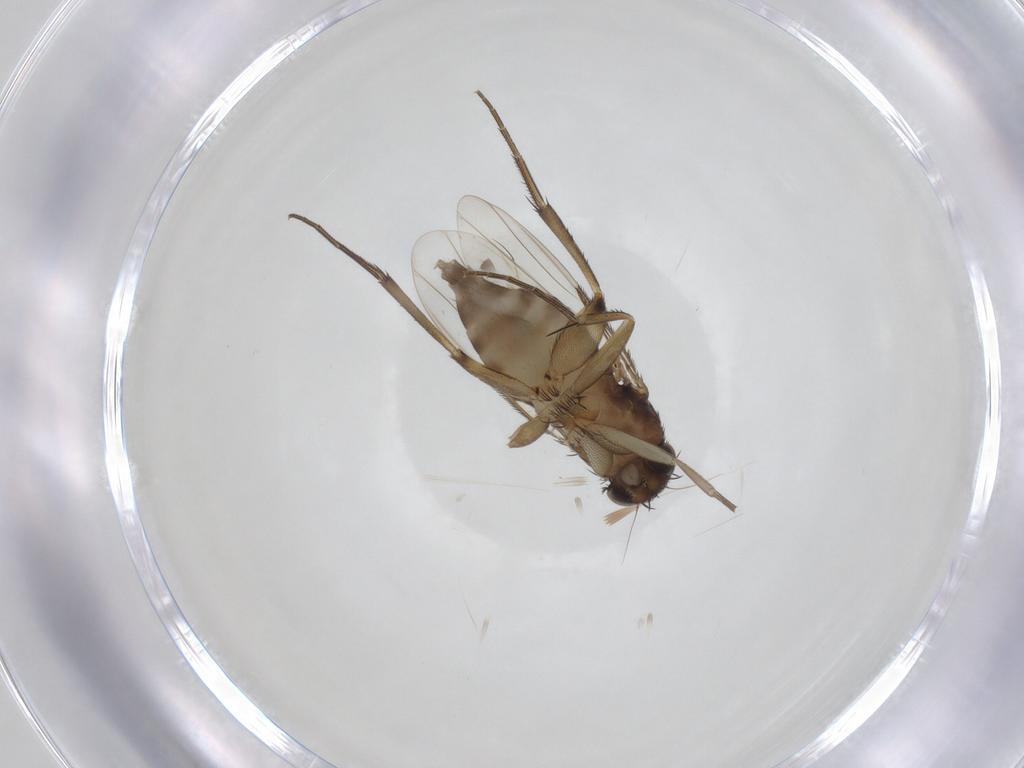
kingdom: Animalia
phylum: Arthropoda
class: Insecta
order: Diptera
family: Phoridae
